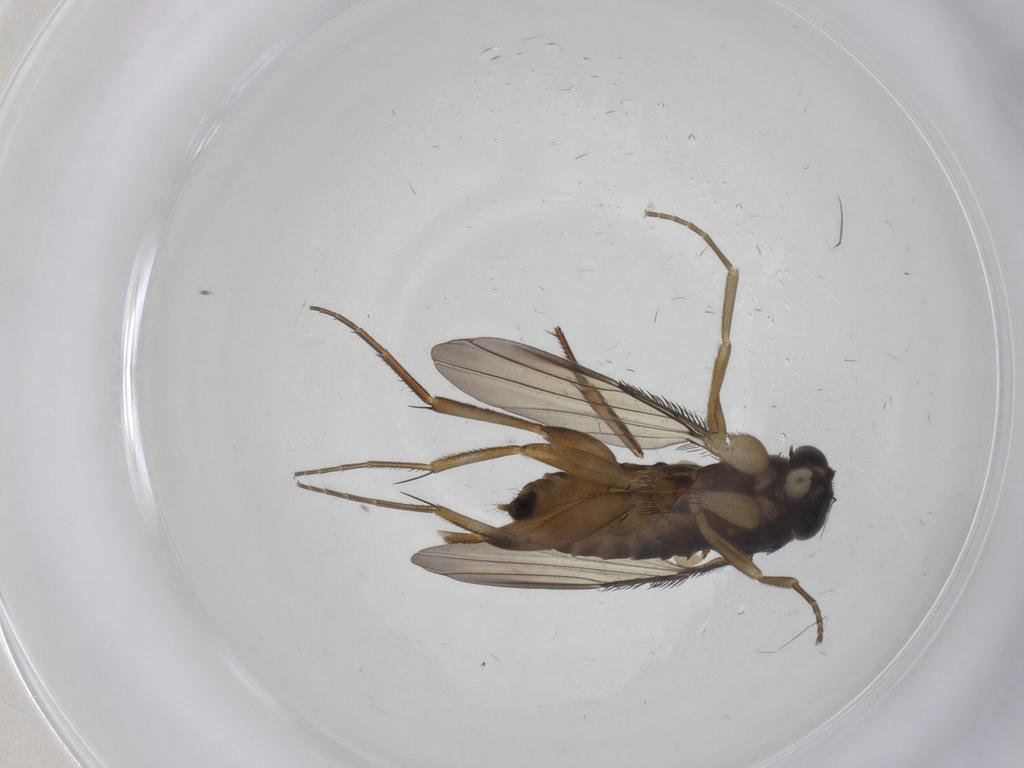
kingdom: Animalia
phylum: Arthropoda
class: Insecta
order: Diptera
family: Phoridae
